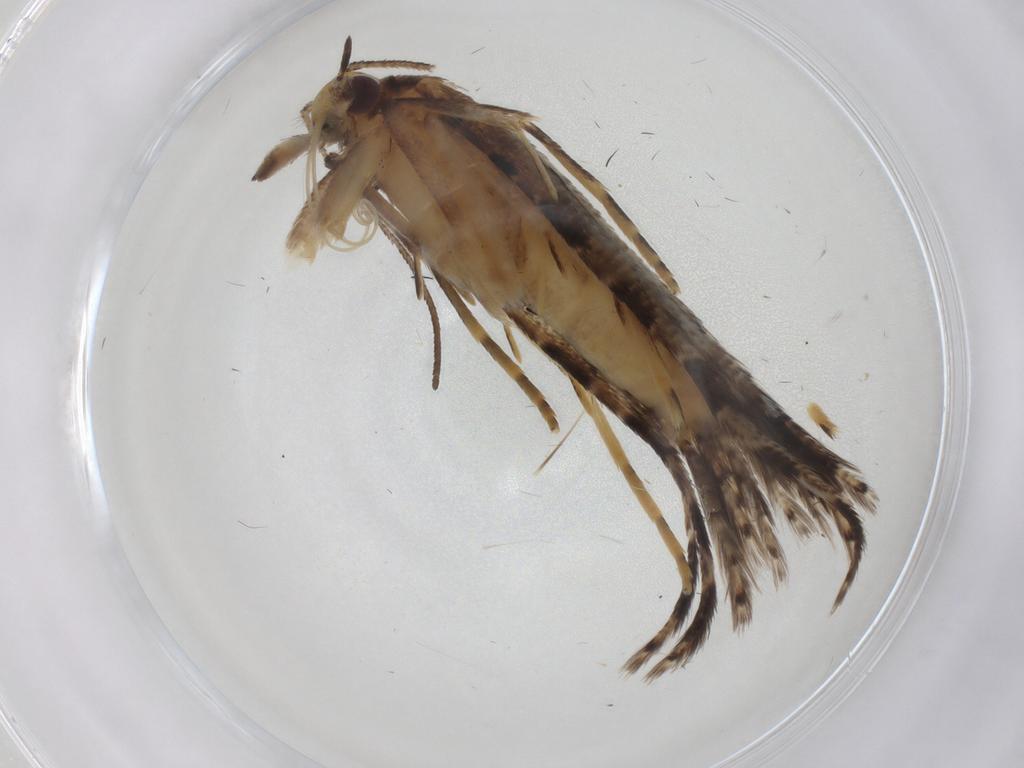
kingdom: Animalia
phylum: Arthropoda
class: Insecta
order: Lepidoptera
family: Alucitidae
